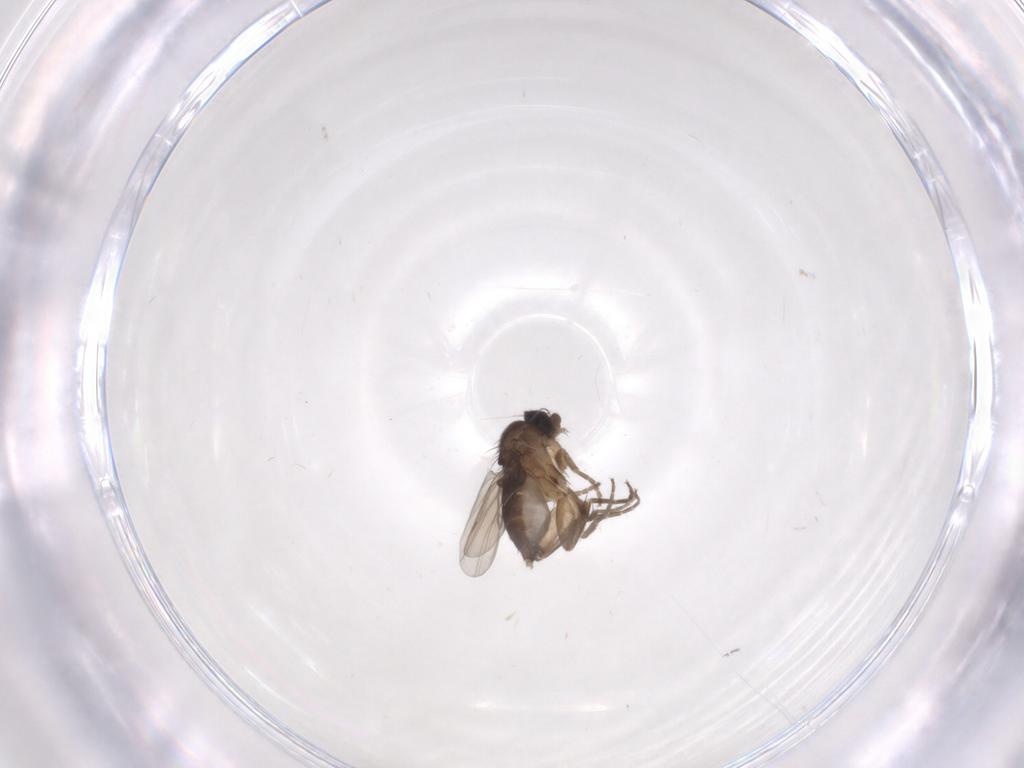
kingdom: Animalia
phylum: Arthropoda
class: Insecta
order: Diptera
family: Phoridae
